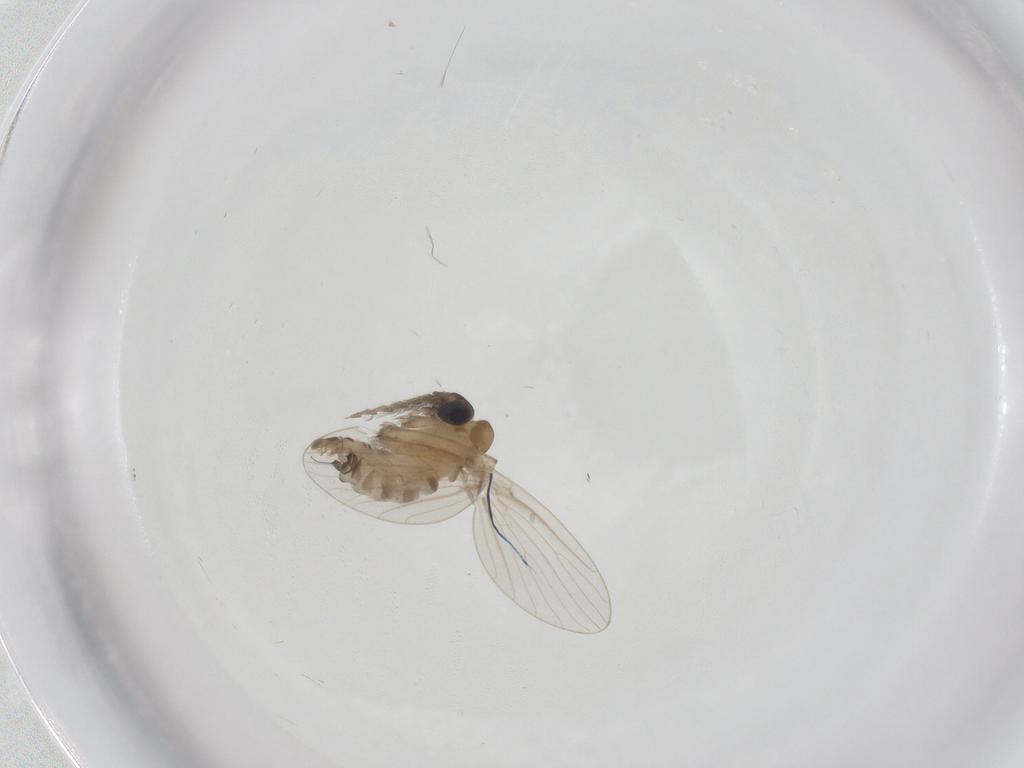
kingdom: Animalia
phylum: Arthropoda
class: Insecta
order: Diptera
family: Psychodidae
